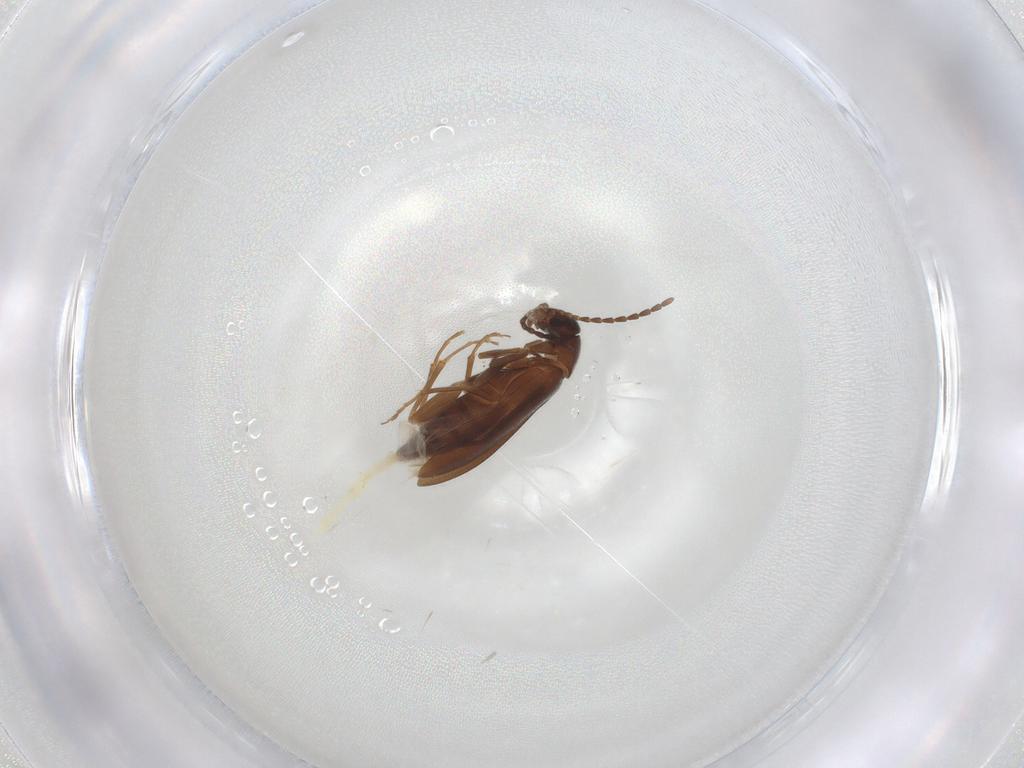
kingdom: Animalia
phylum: Arthropoda
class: Insecta
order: Coleoptera
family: Scraptiidae
